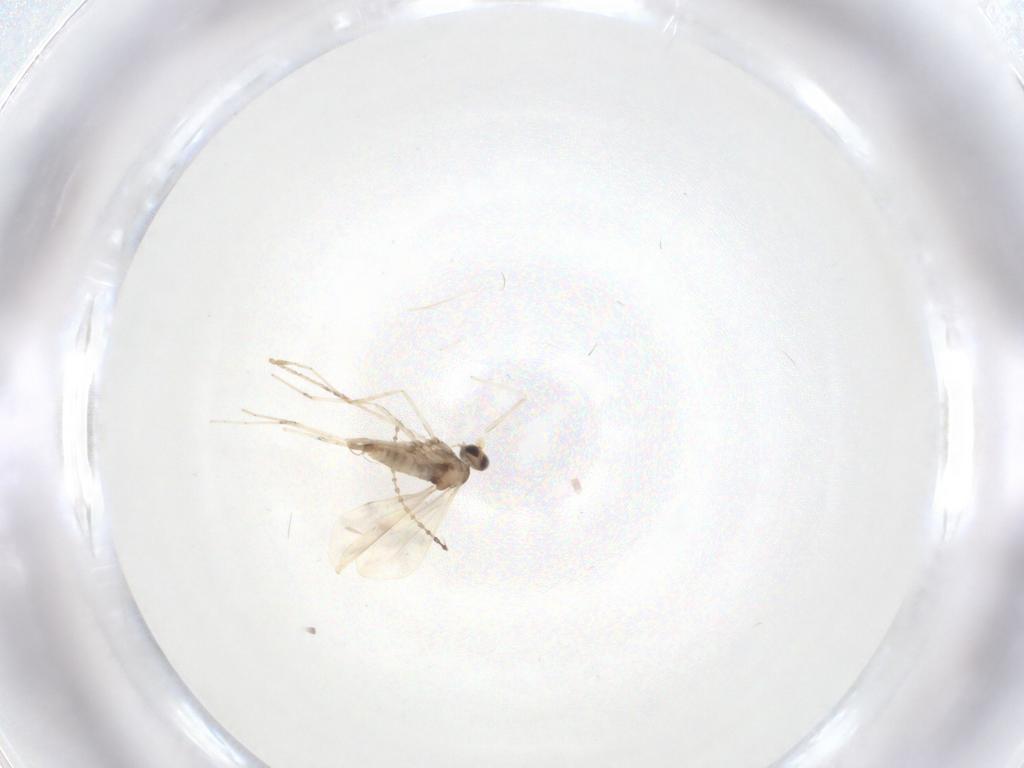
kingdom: Animalia
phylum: Arthropoda
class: Insecta
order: Diptera
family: Cecidomyiidae
